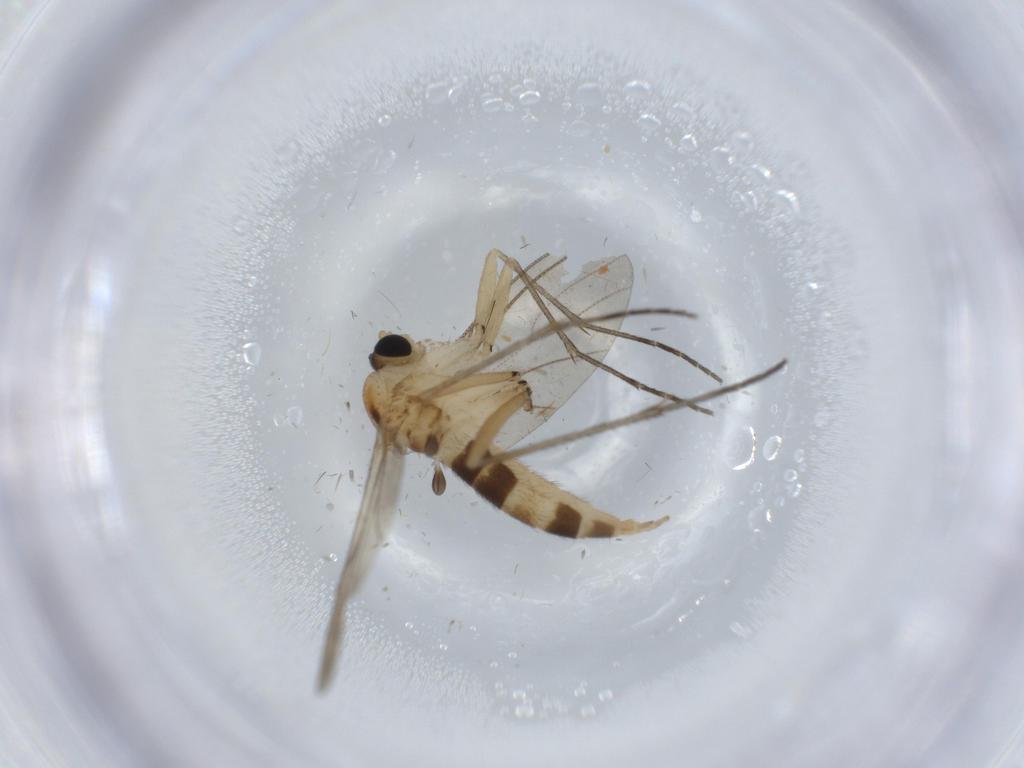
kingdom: Animalia
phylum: Arthropoda
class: Insecta
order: Diptera
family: Sciaridae
